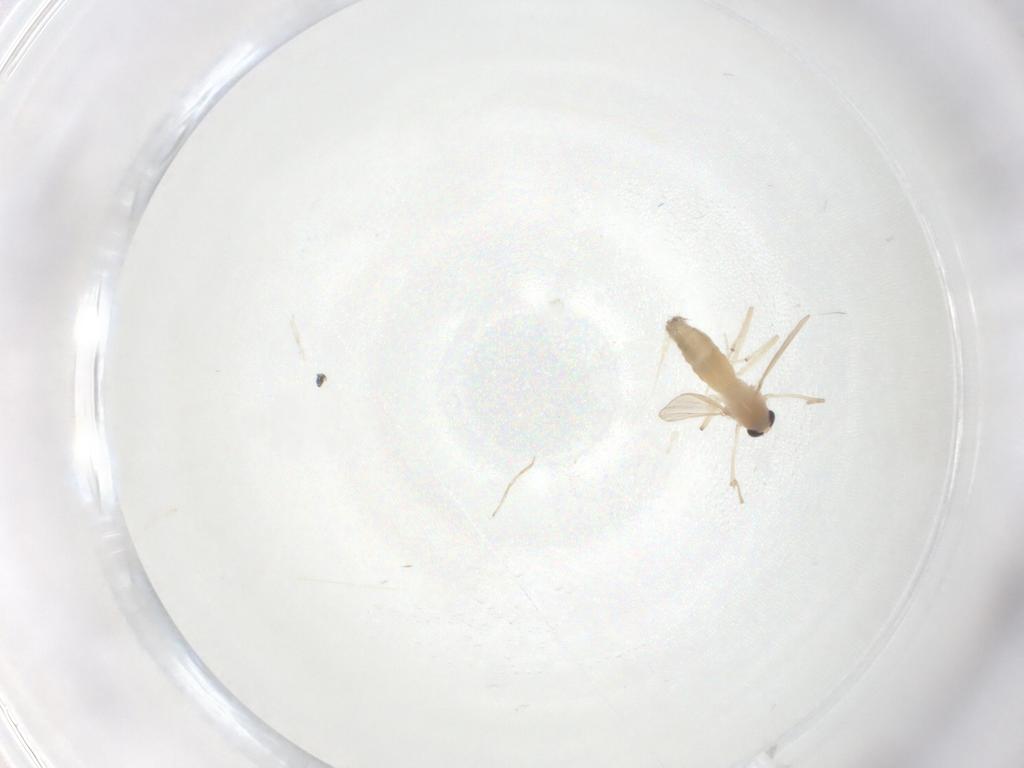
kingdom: Animalia
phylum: Arthropoda
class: Insecta
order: Diptera
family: Chironomidae
